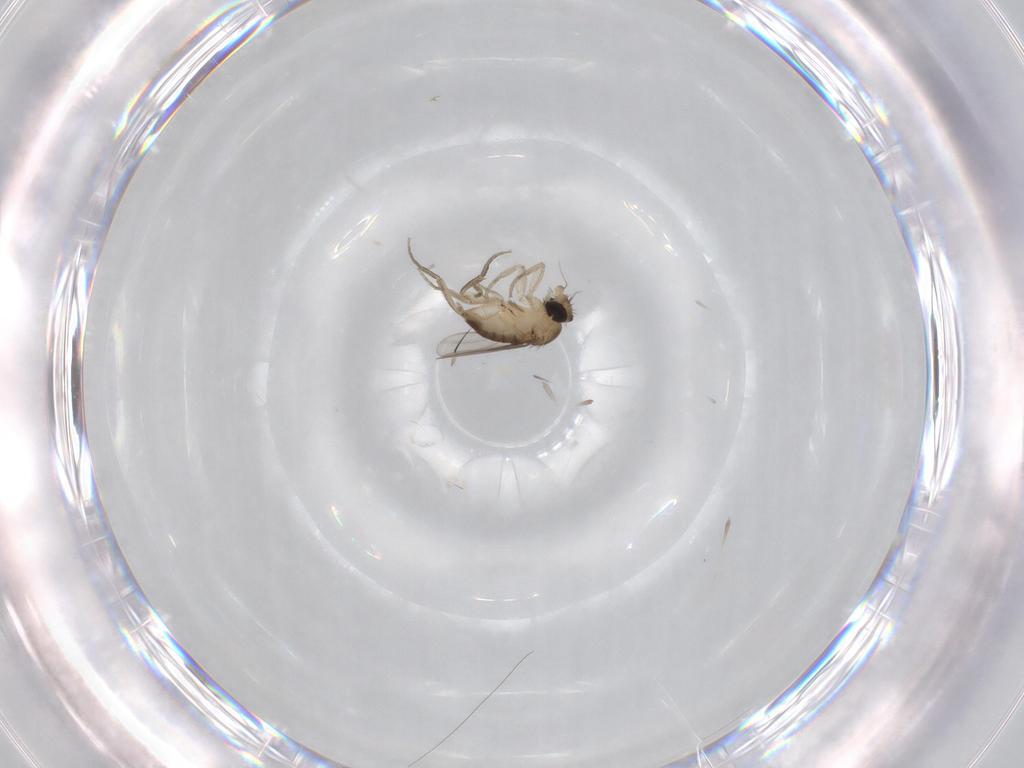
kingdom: Animalia
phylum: Arthropoda
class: Insecta
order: Diptera
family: Phoridae
